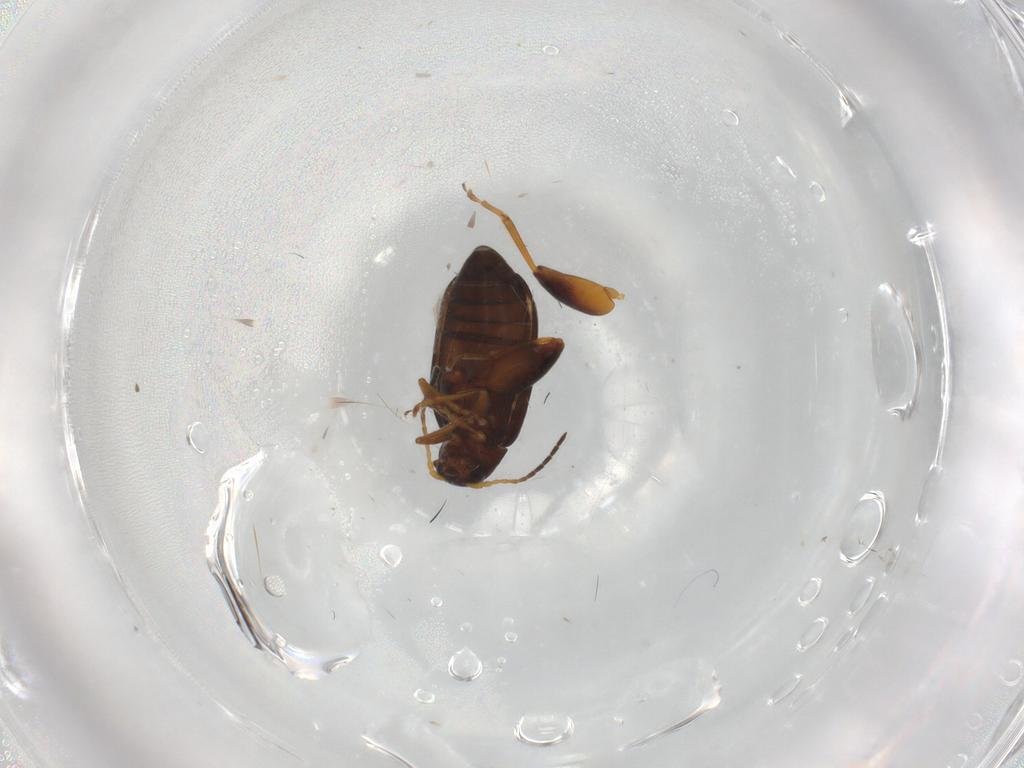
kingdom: Animalia
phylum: Arthropoda
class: Insecta
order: Coleoptera
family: Chrysomelidae
